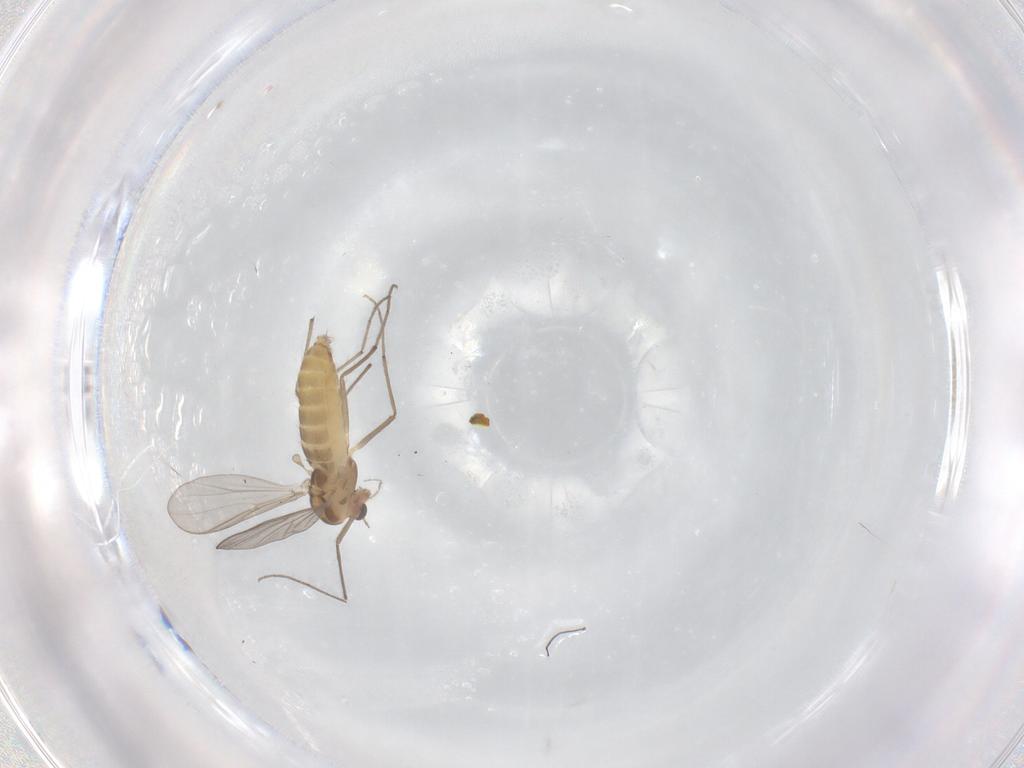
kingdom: Animalia
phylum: Arthropoda
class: Insecta
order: Diptera
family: Chironomidae
